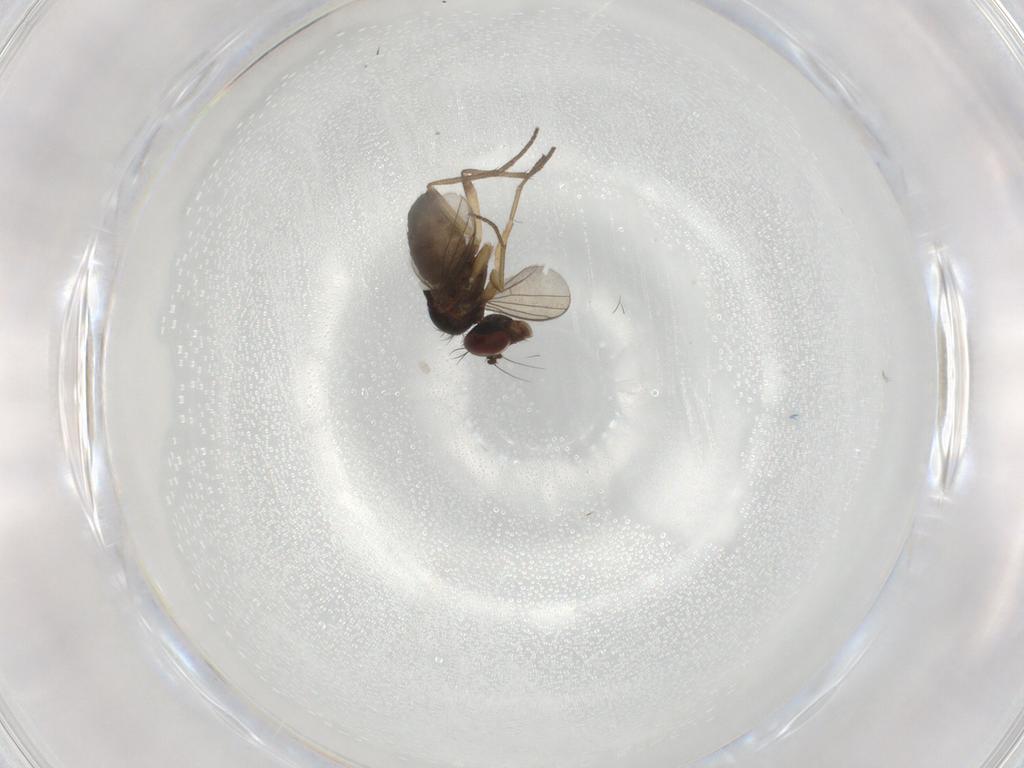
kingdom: Animalia
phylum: Arthropoda
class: Insecta
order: Diptera
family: Dolichopodidae
